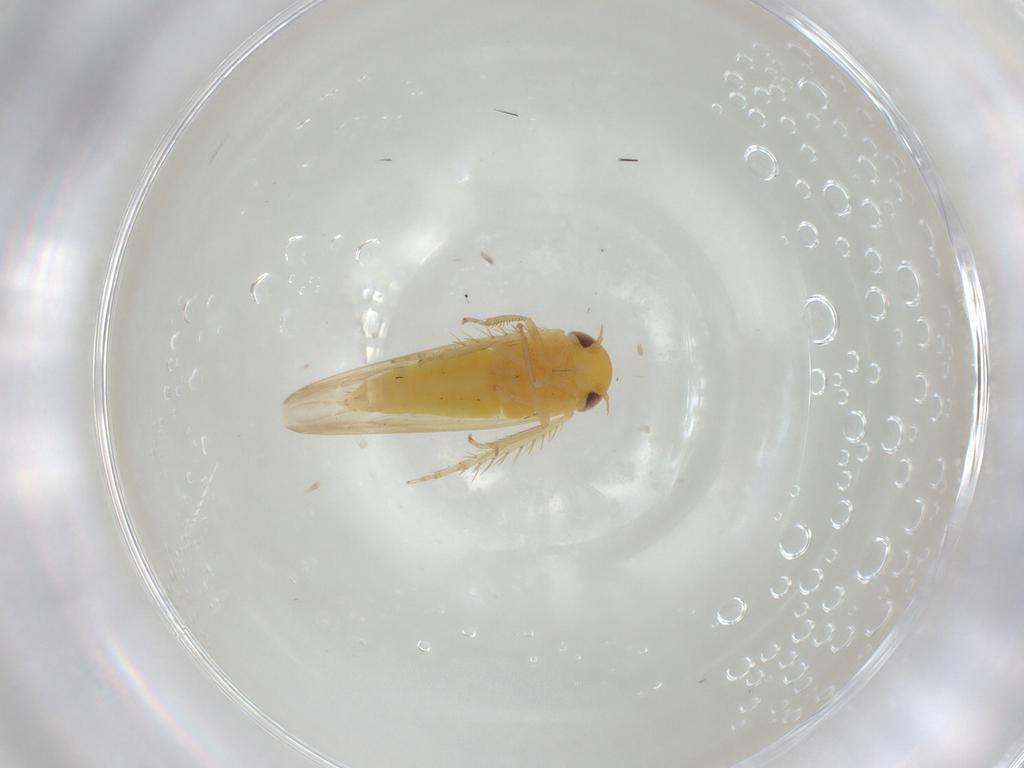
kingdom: Animalia
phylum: Arthropoda
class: Insecta
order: Hemiptera
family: Cicadellidae
